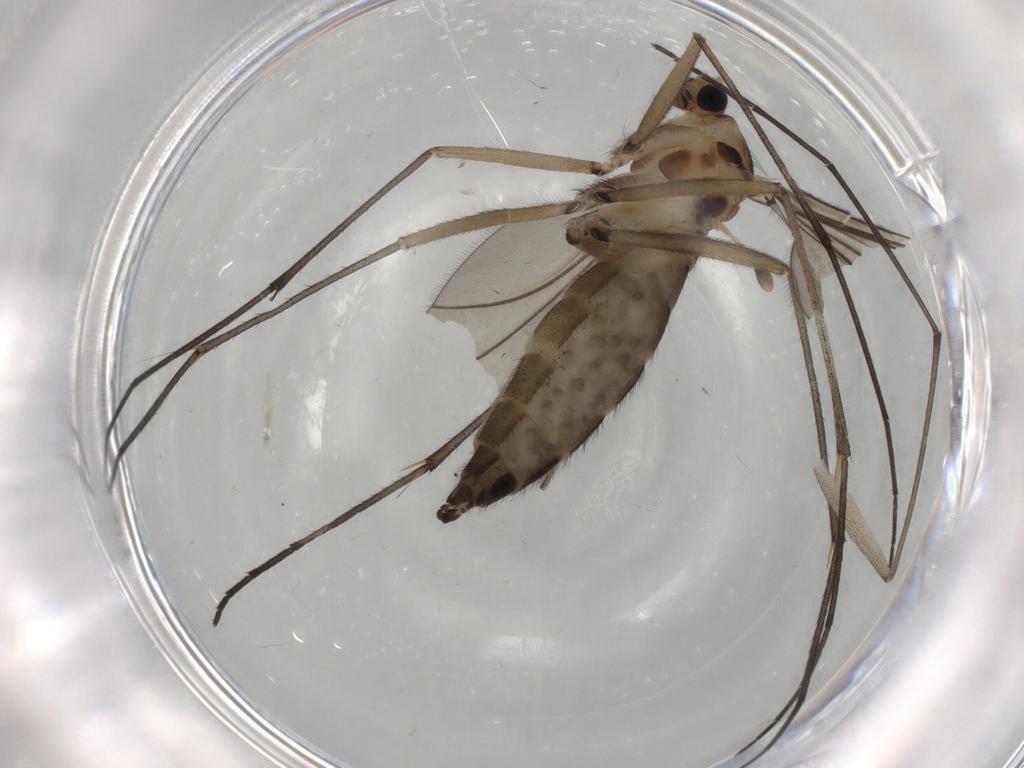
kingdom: Animalia
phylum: Arthropoda
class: Insecta
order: Diptera
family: Sciaridae
